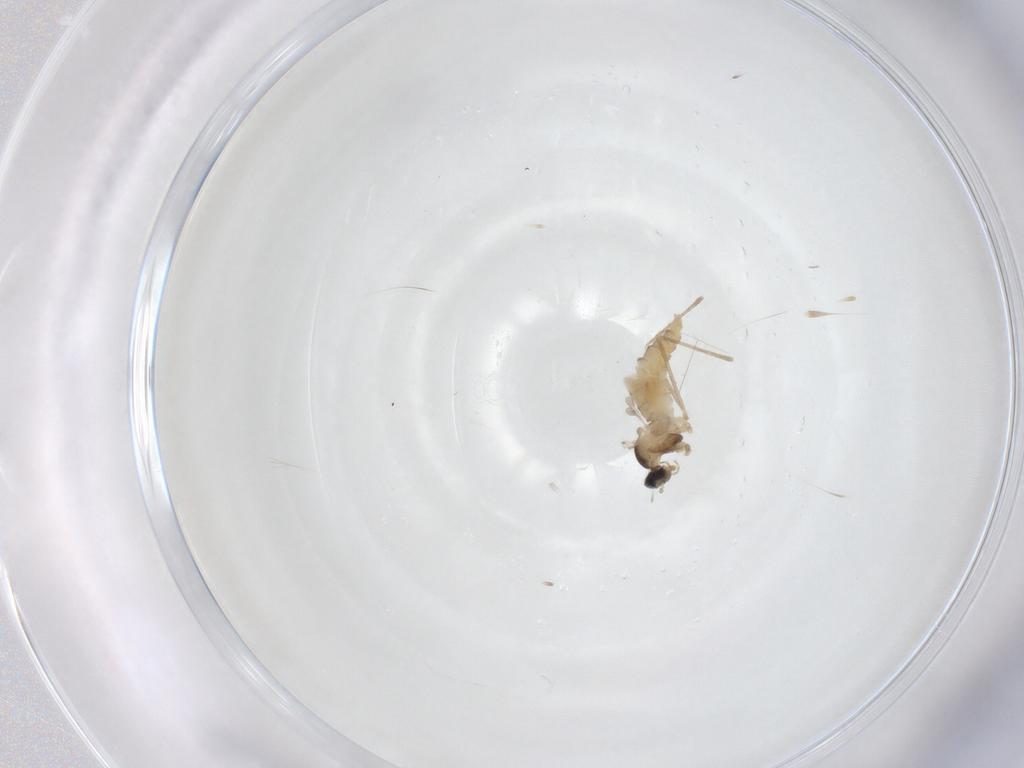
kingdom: Animalia
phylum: Arthropoda
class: Insecta
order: Diptera
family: Cecidomyiidae
